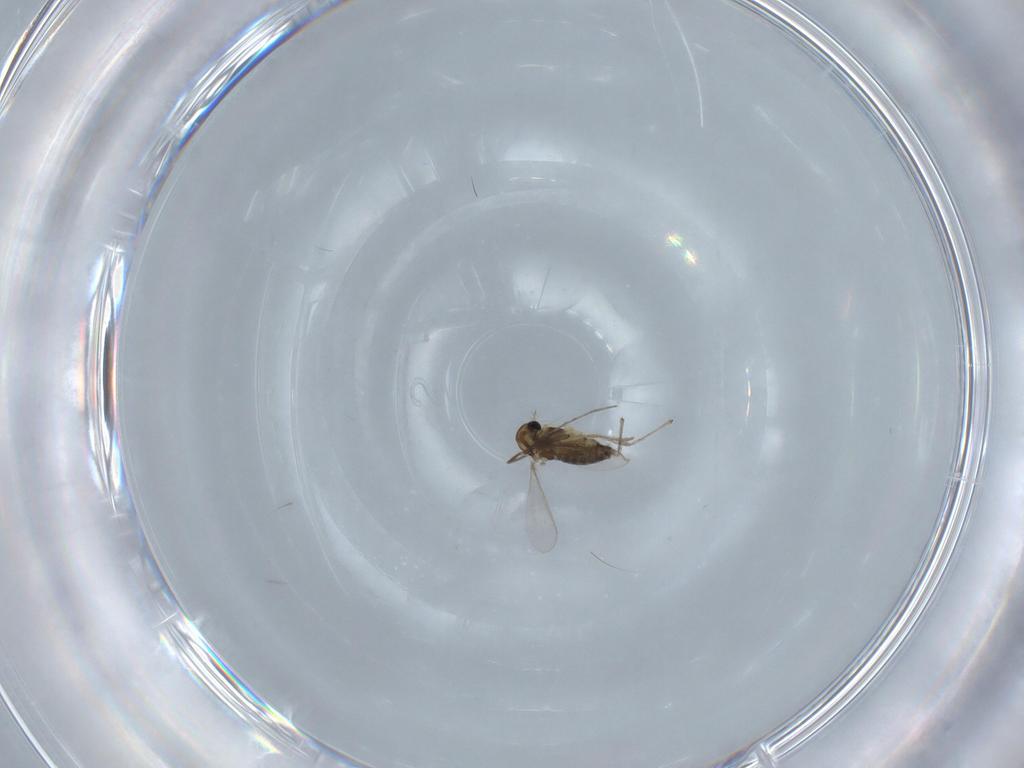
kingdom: Animalia
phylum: Arthropoda
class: Insecta
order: Diptera
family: Chironomidae
